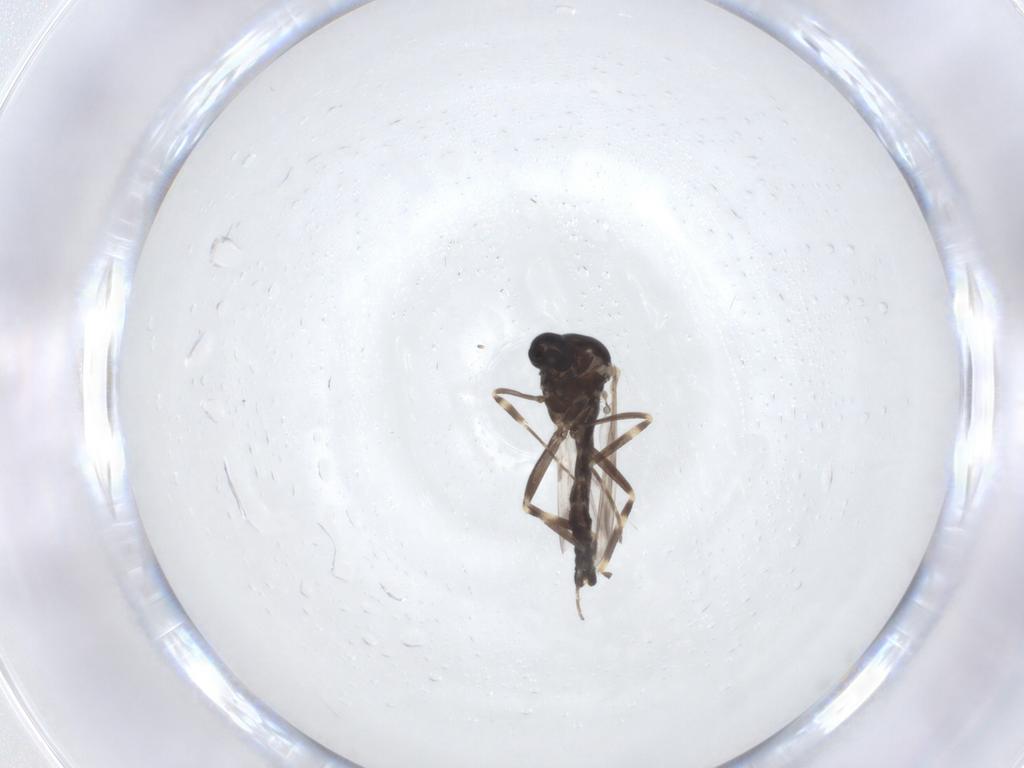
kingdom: Animalia
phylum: Arthropoda
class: Insecta
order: Diptera
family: Ceratopogonidae
